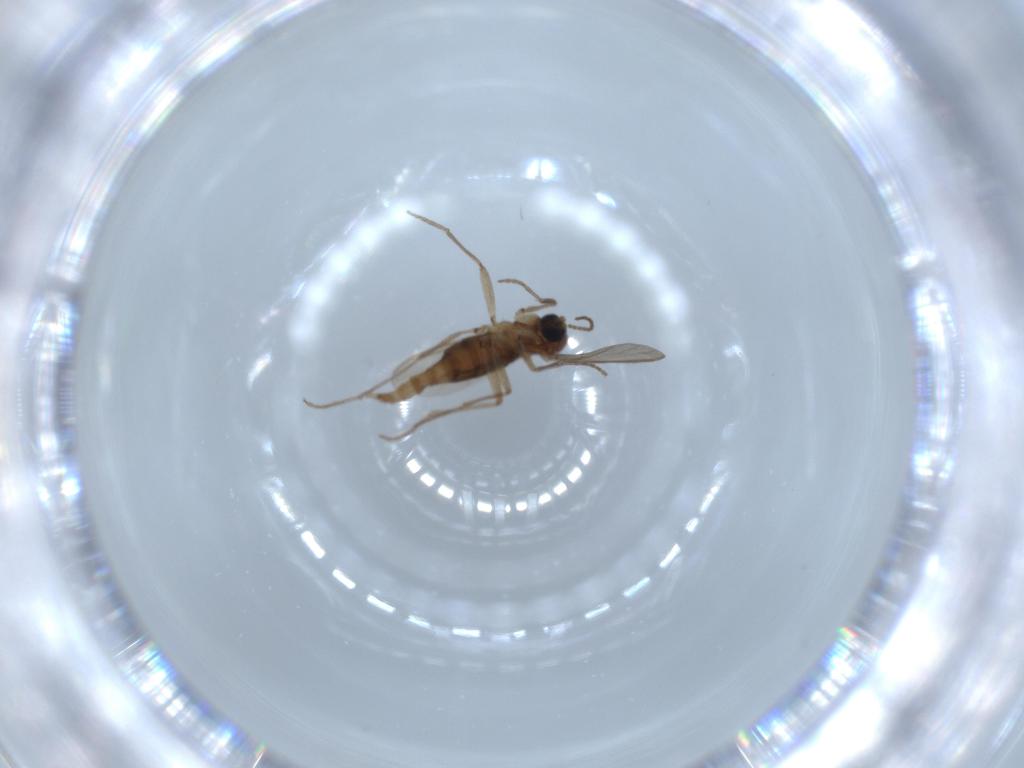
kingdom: Animalia
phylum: Arthropoda
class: Insecta
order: Diptera
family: Sciaridae
